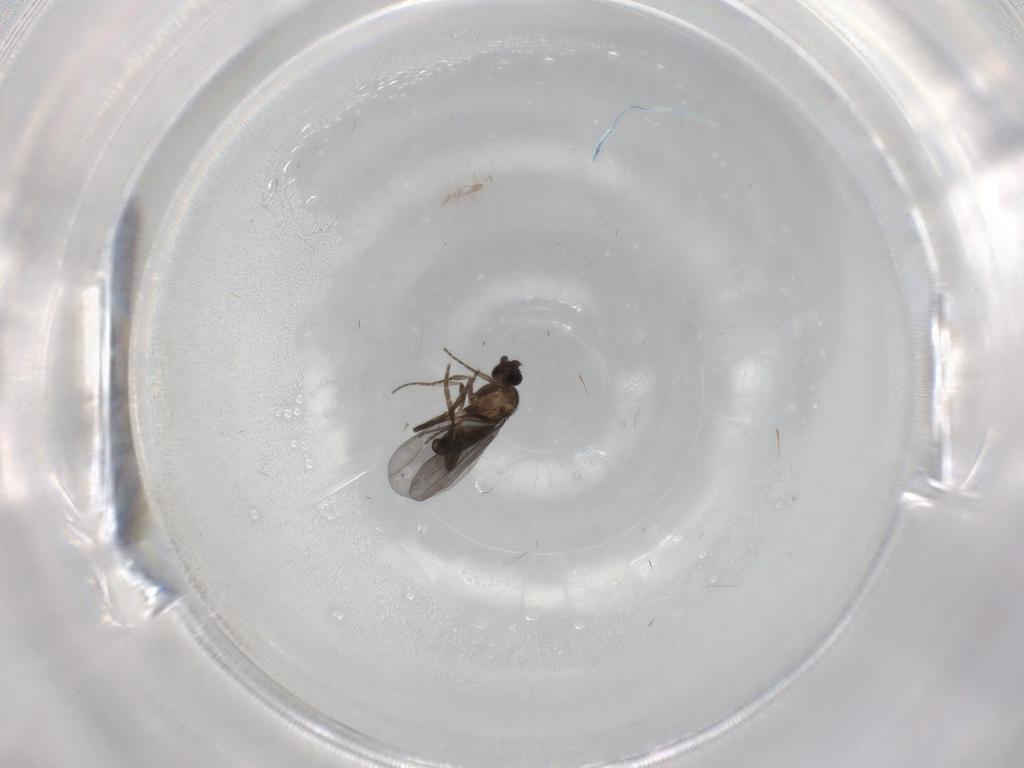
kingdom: Animalia
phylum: Arthropoda
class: Insecta
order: Diptera
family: Phoridae
